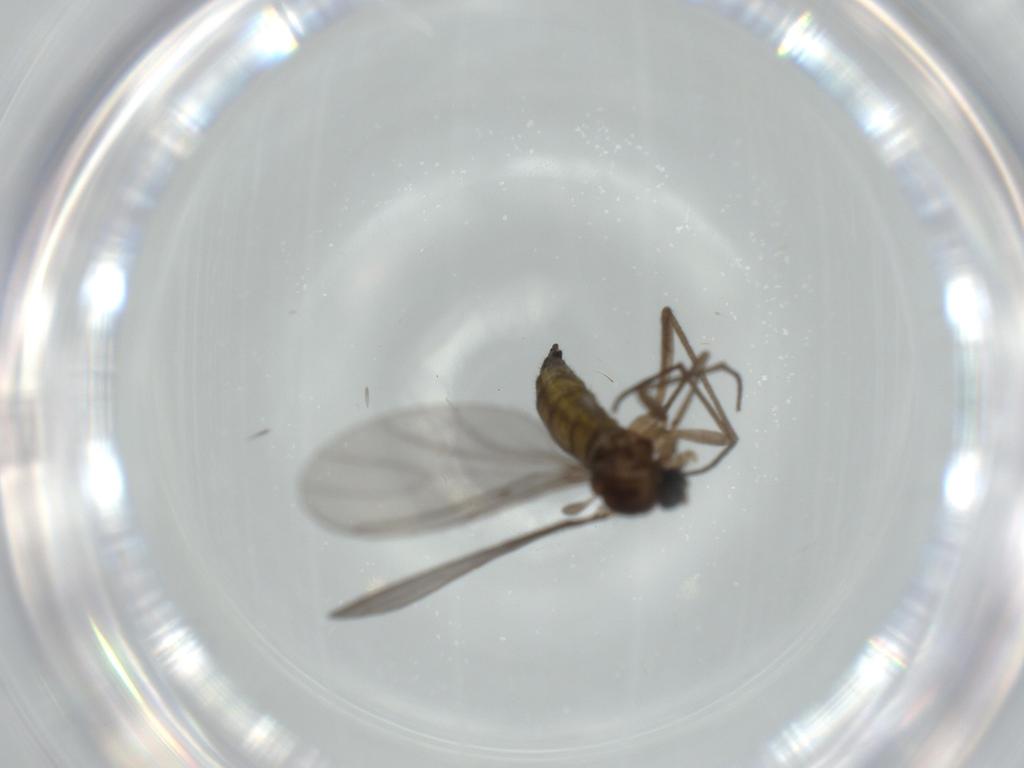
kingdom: Animalia
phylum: Arthropoda
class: Insecta
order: Diptera
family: Sciaridae
